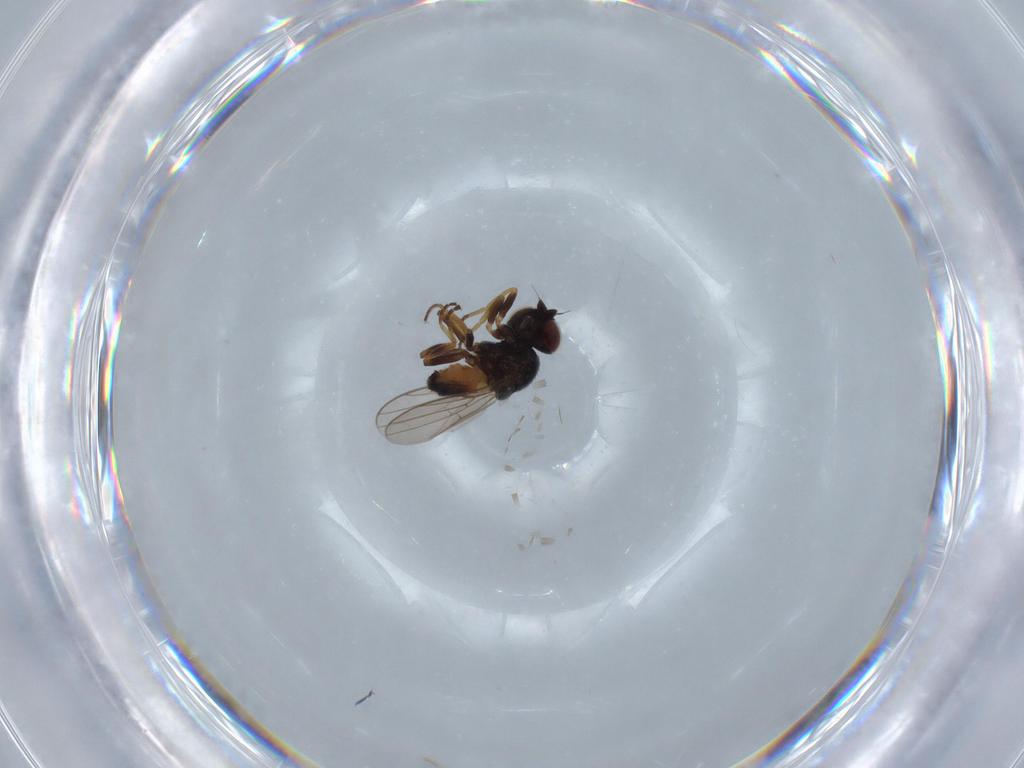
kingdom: Animalia
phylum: Arthropoda
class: Insecta
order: Diptera
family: Chloropidae
